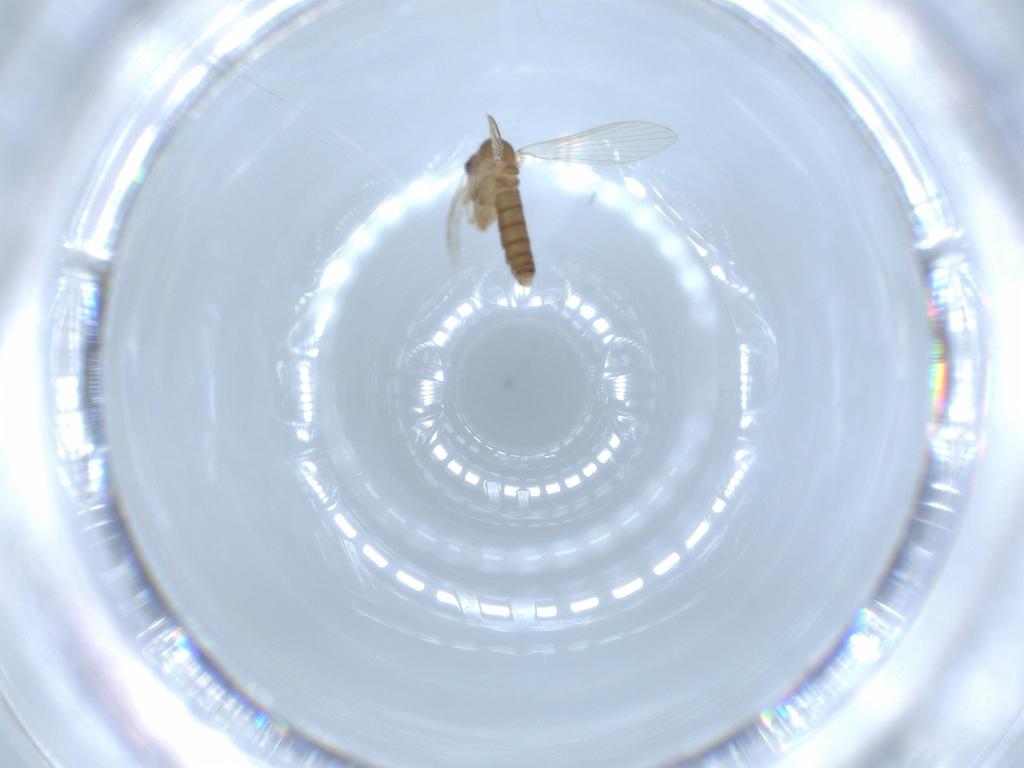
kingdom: Animalia
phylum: Arthropoda
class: Insecta
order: Diptera
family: Psychodidae
